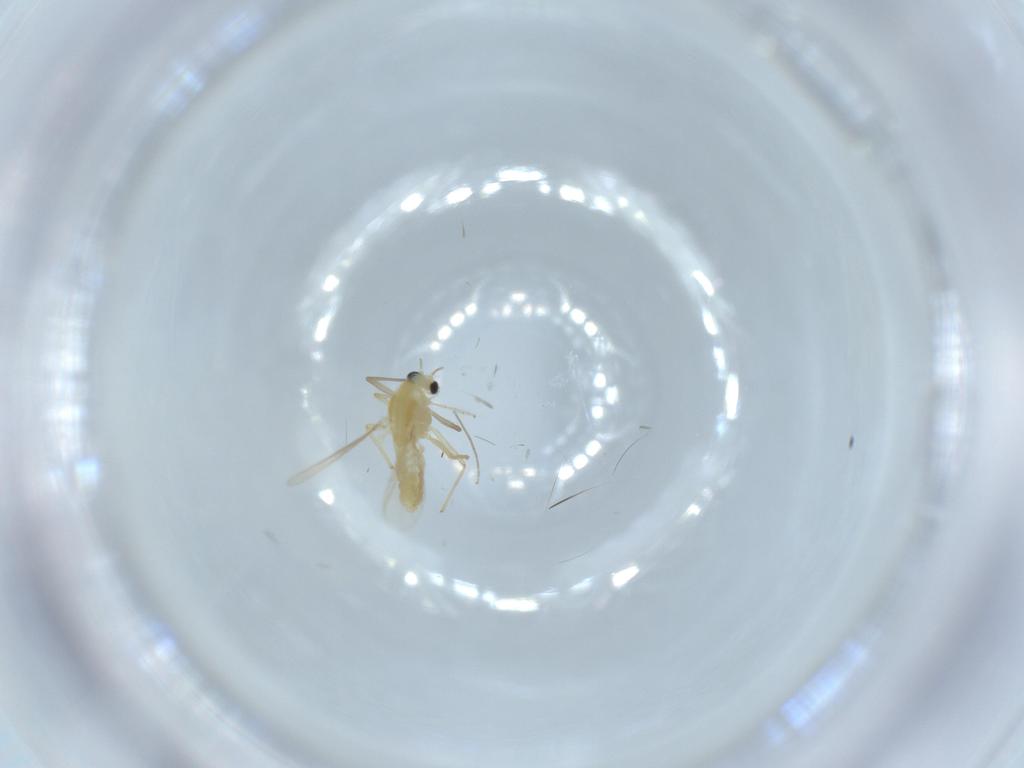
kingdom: Animalia
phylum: Arthropoda
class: Insecta
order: Diptera
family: Chironomidae
